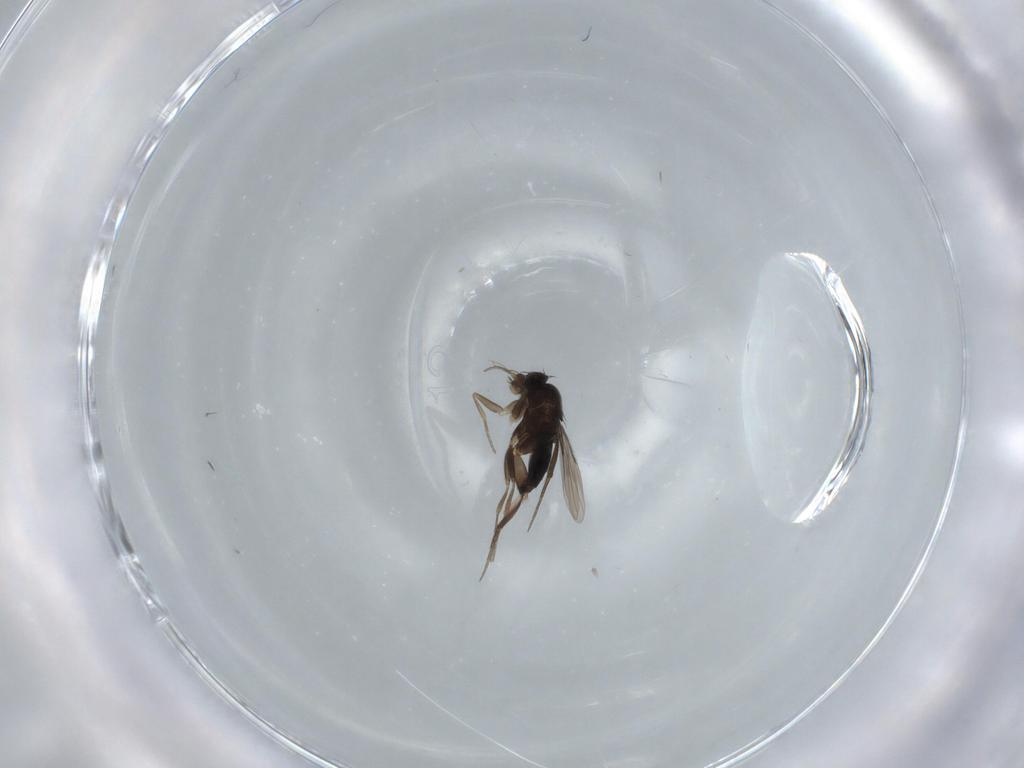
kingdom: Animalia
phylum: Arthropoda
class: Insecta
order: Diptera
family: Phoridae
